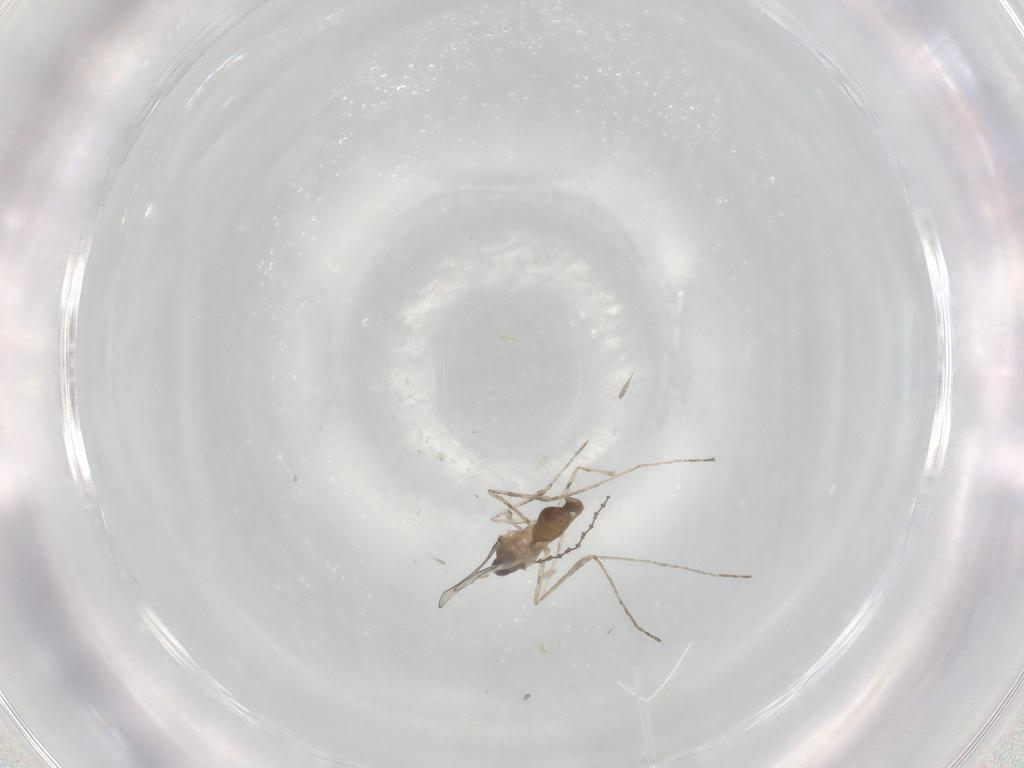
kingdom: Animalia
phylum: Arthropoda
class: Insecta
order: Diptera
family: Cecidomyiidae
